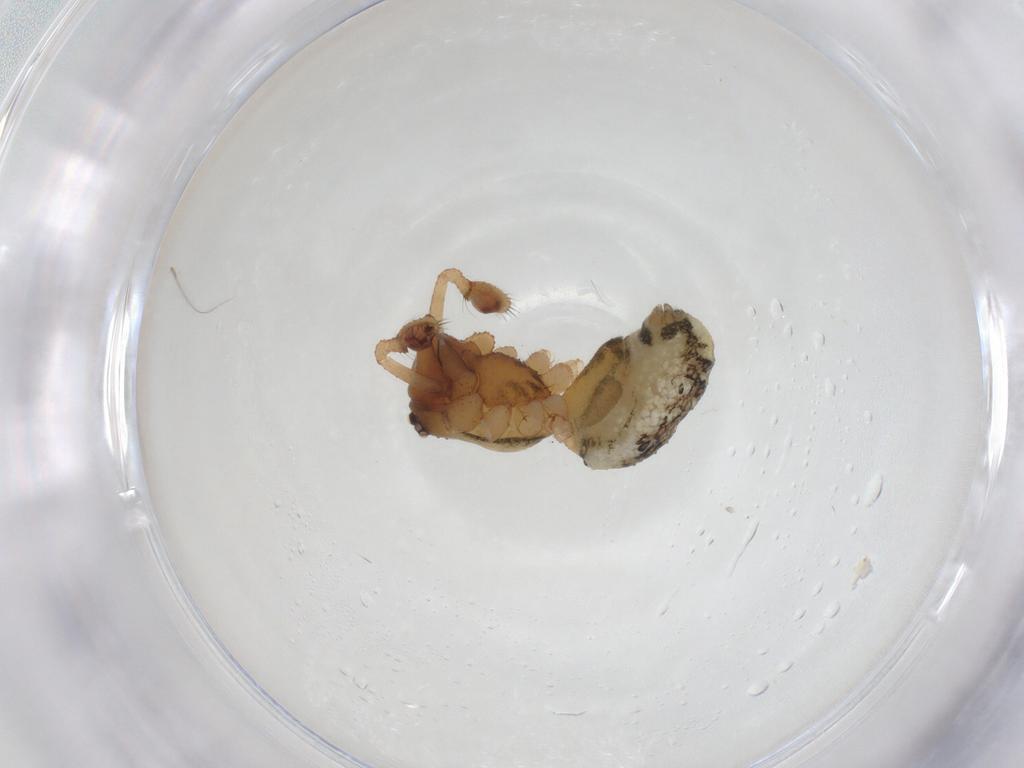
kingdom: Animalia
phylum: Arthropoda
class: Arachnida
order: Araneae
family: Theridiidae
